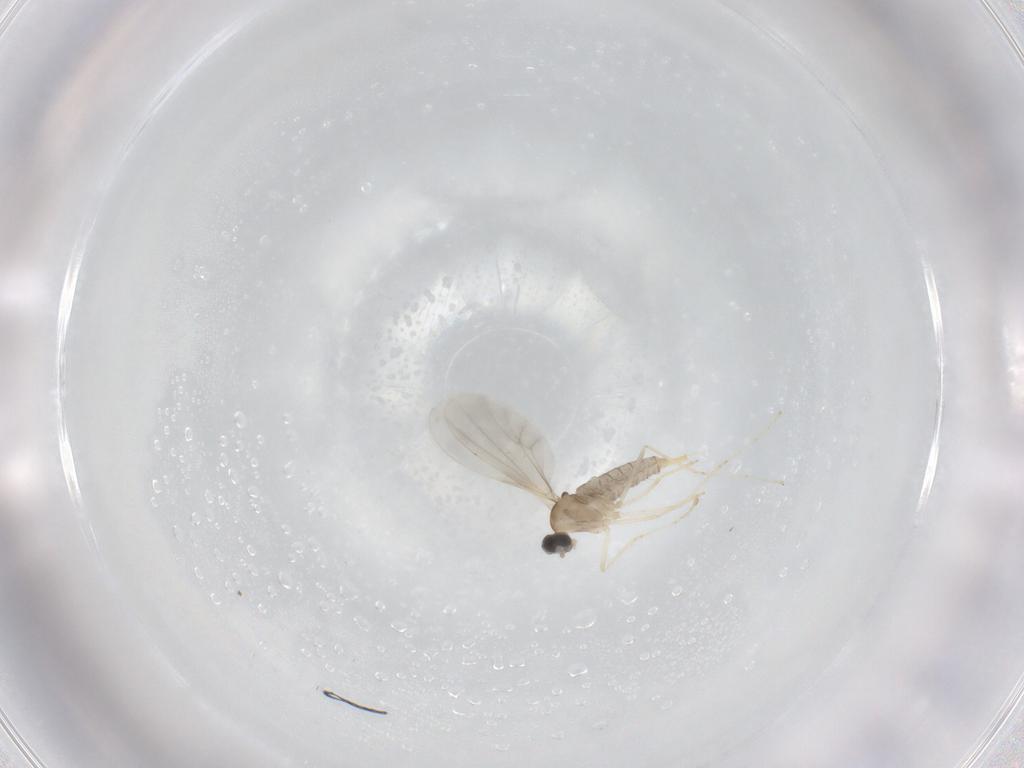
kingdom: Animalia
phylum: Arthropoda
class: Insecta
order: Diptera
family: Cecidomyiidae
